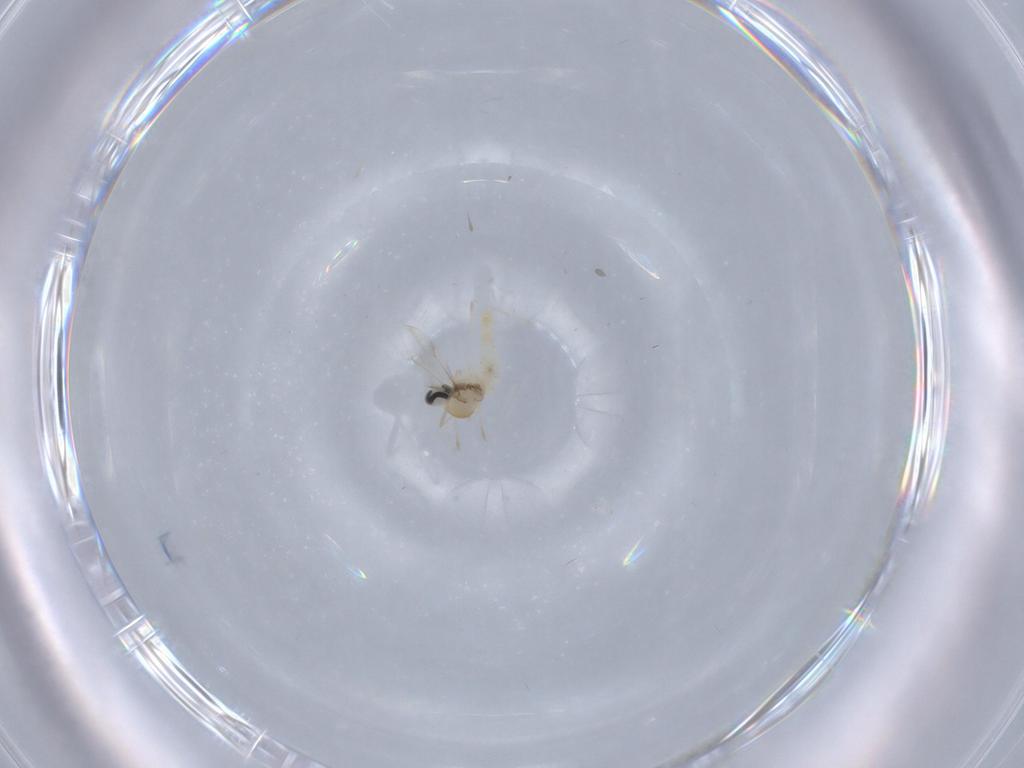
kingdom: Animalia
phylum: Arthropoda
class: Insecta
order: Diptera
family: Cecidomyiidae
